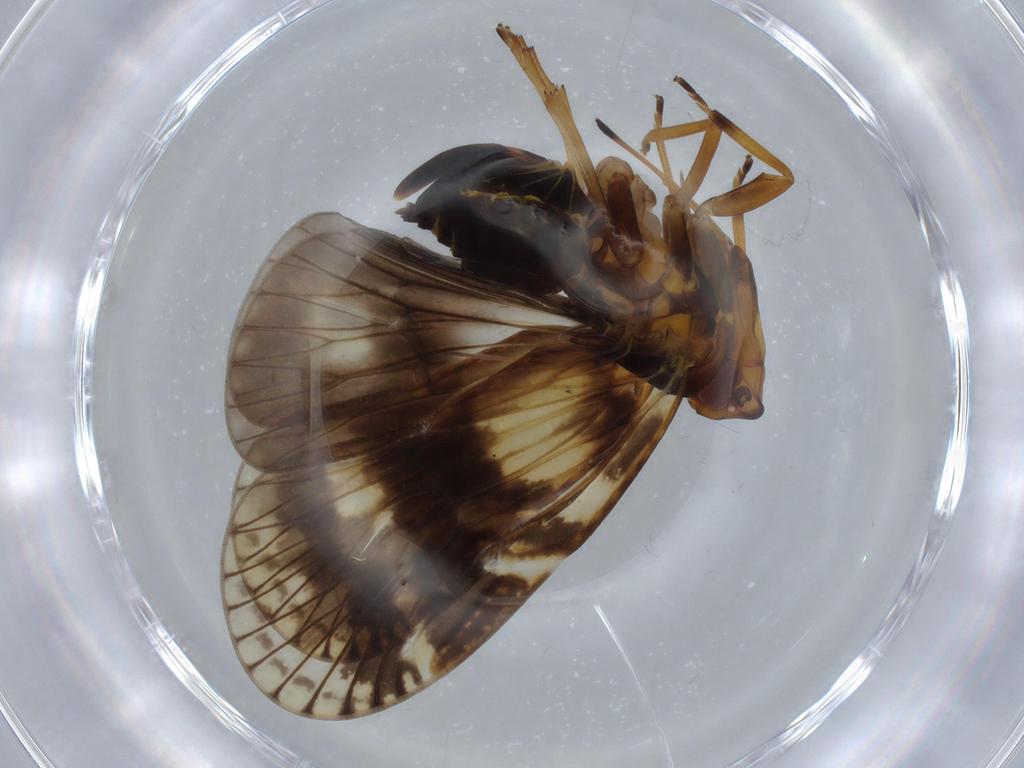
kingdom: Animalia
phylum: Arthropoda
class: Insecta
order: Hemiptera
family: Cixiidae
